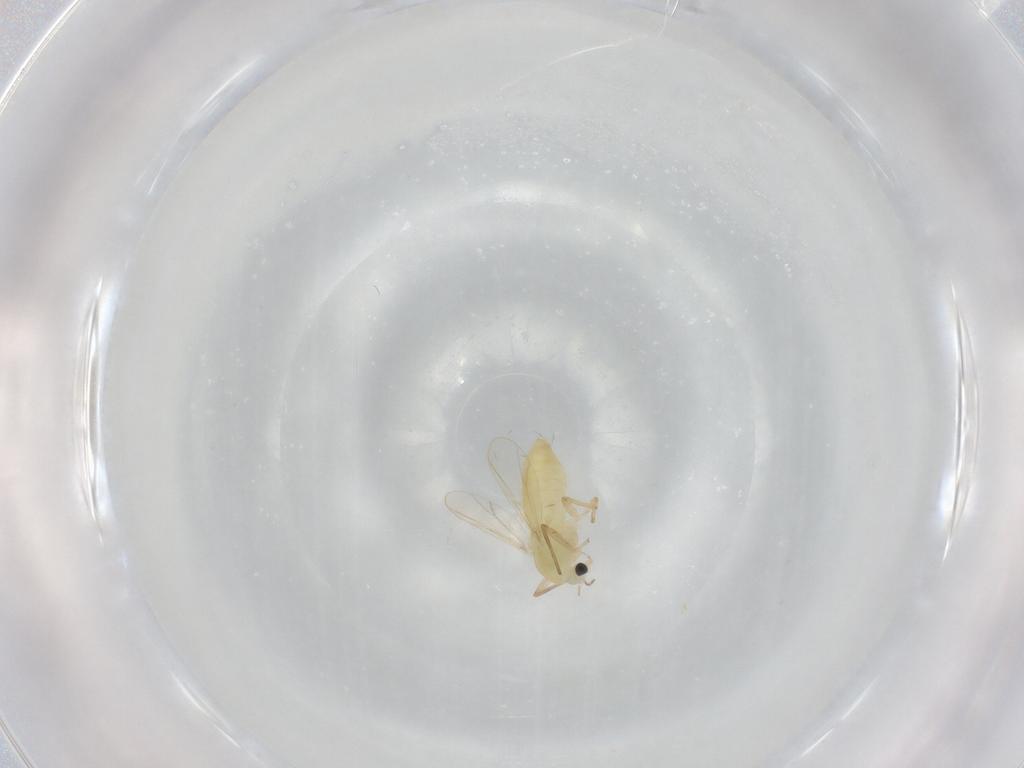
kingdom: Animalia
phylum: Arthropoda
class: Insecta
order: Diptera
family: Chironomidae
